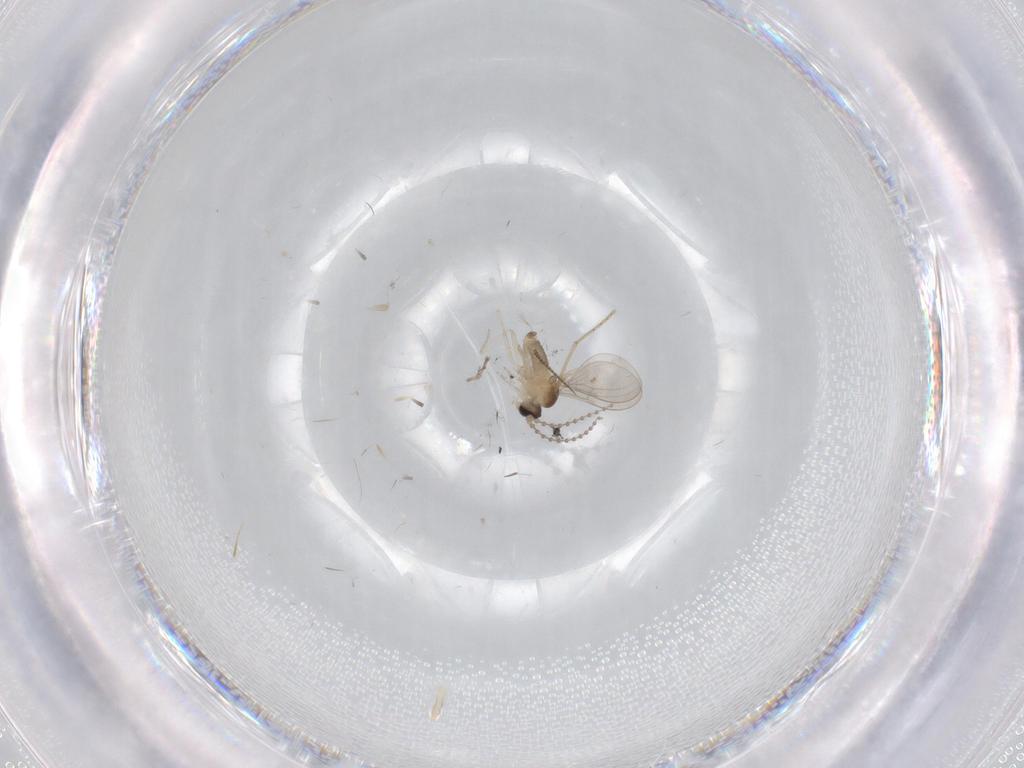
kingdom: Animalia
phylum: Arthropoda
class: Insecta
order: Diptera
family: Cecidomyiidae
